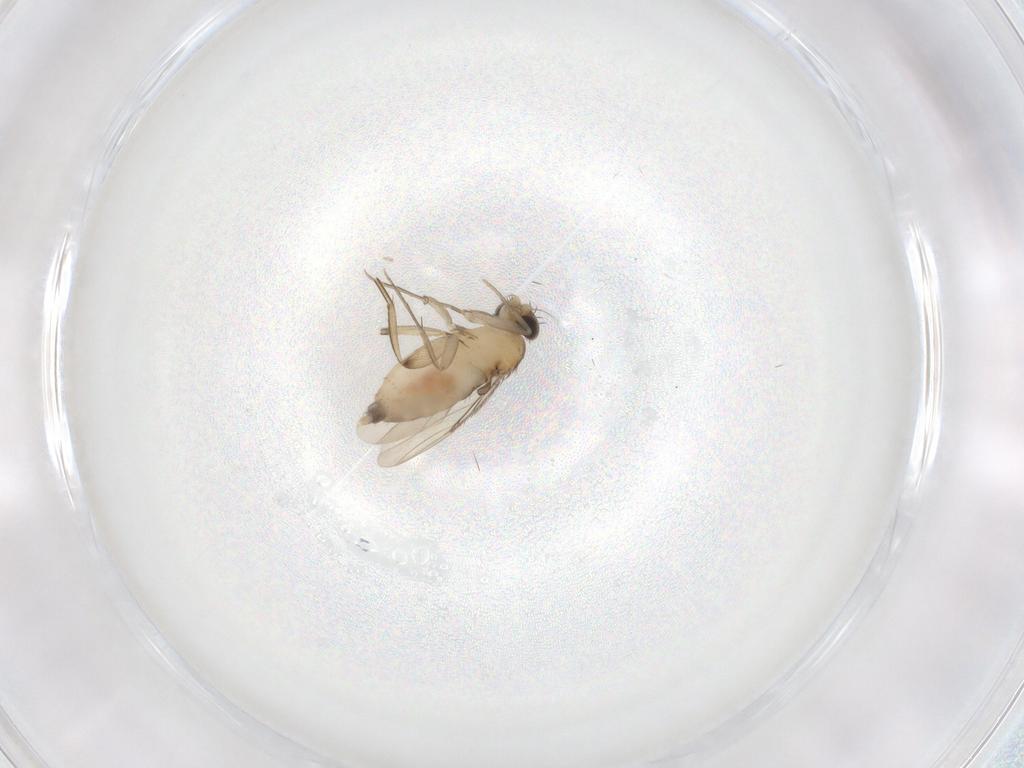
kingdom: Animalia
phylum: Arthropoda
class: Insecta
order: Diptera
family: Phoridae
